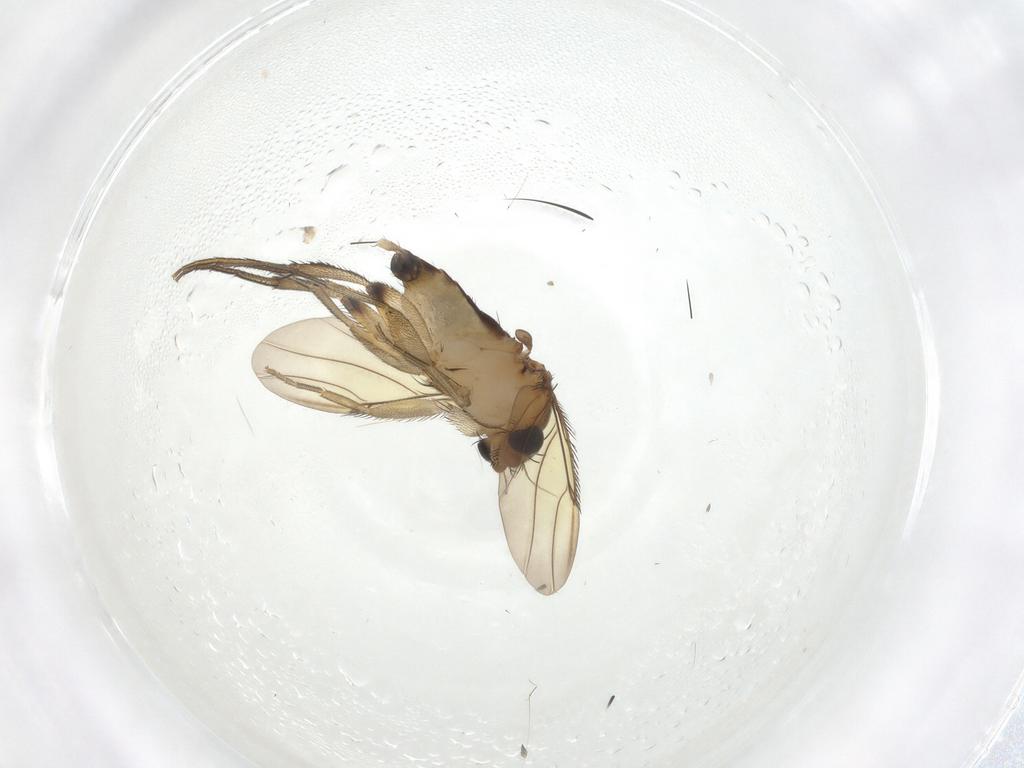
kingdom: Animalia
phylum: Arthropoda
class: Insecta
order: Diptera
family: Phoridae
